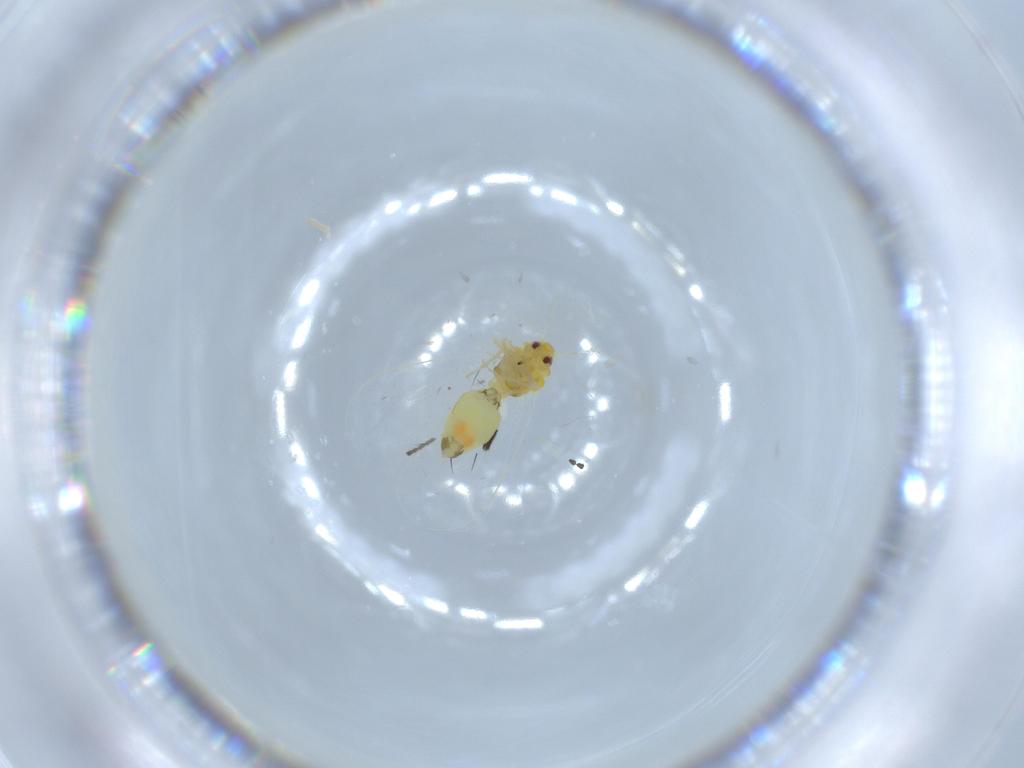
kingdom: Animalia
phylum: Arthropoda
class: Insecta
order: Hemiptera
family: Aleyrodidae
